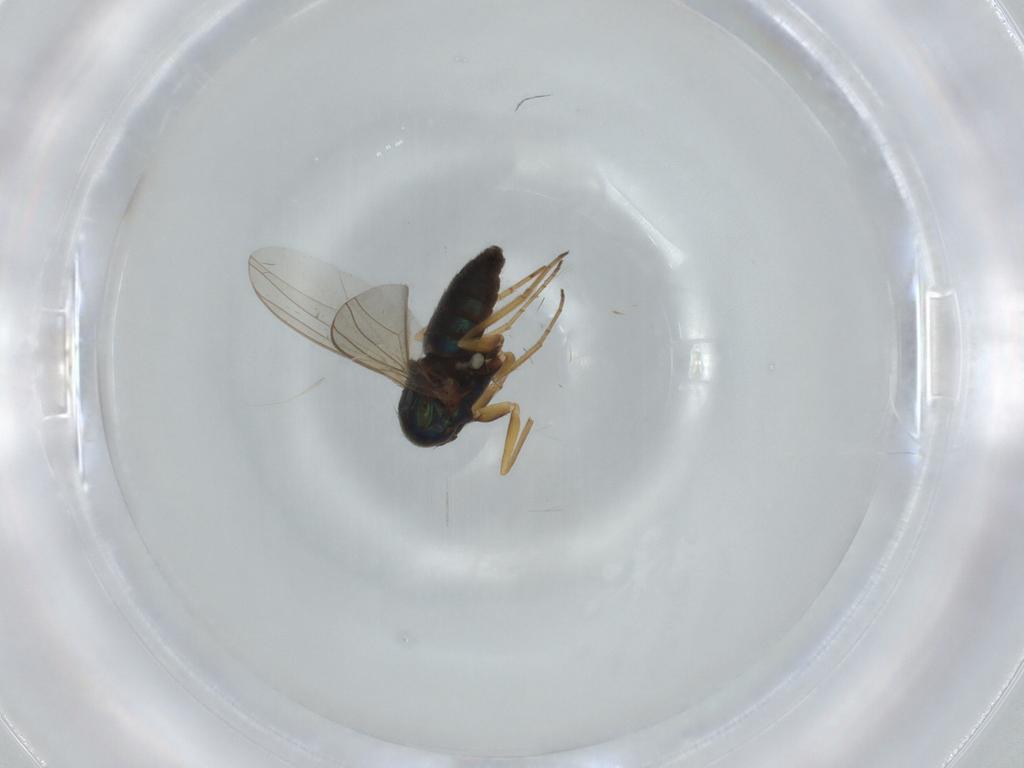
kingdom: Animalia
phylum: Arthropoda
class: Insecta
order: Diptera
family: Dolichopodidae
